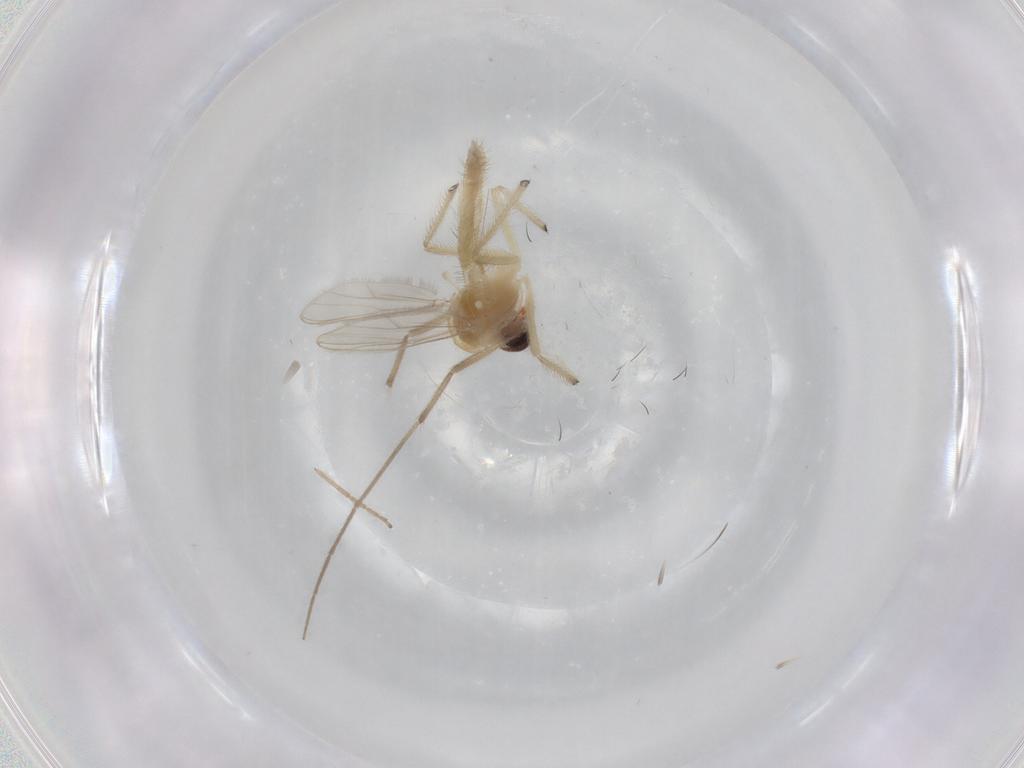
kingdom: Animalia
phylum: Arthropoda
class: Insecta
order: Diptera
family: Chironomidae
